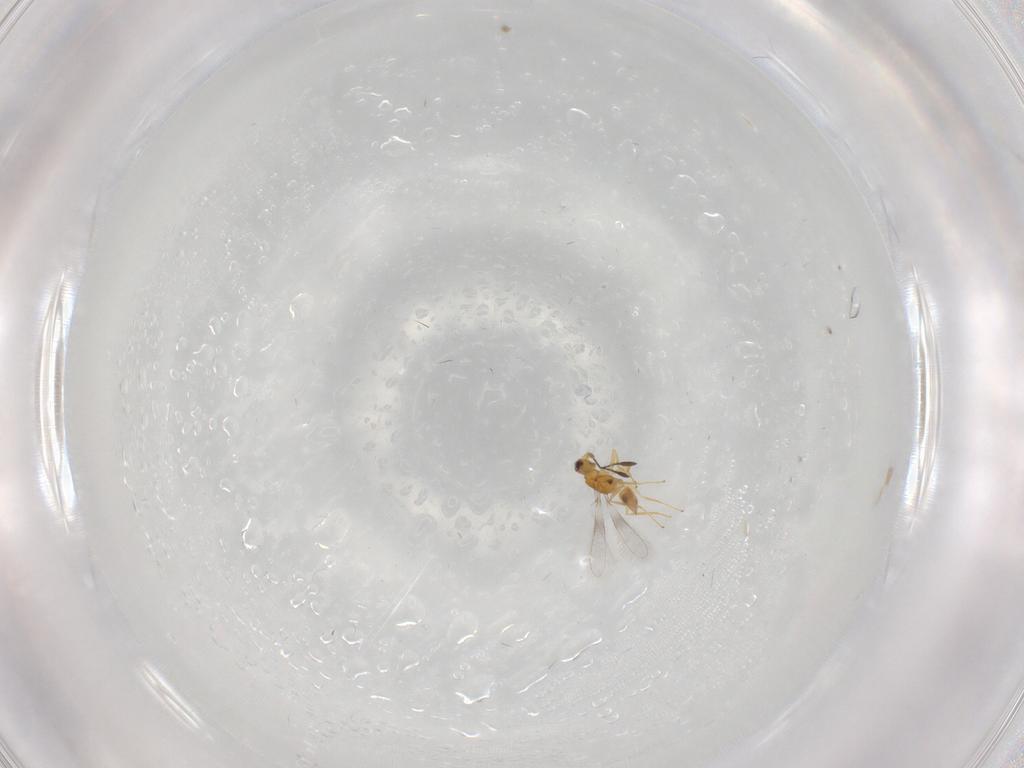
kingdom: Animalia
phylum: Arthropoda
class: Insecta
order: Hymenoptera
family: Mymaridae
